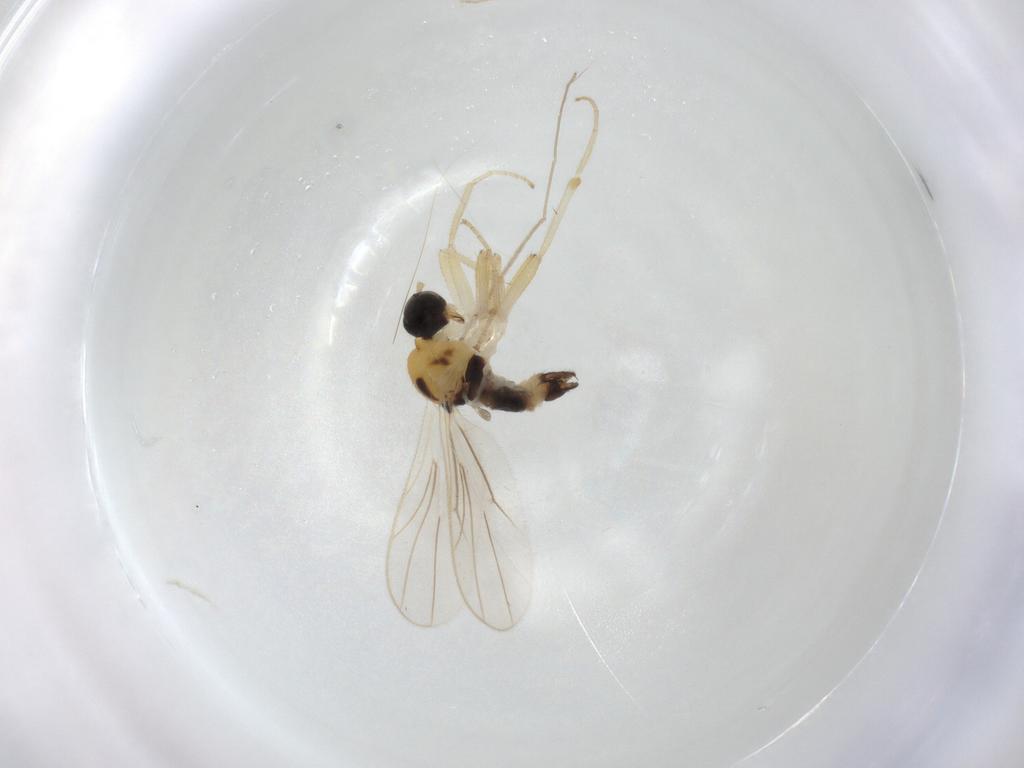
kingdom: Animalia
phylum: Arthropoda
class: Insecta
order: Diptera
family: Hybotidae
